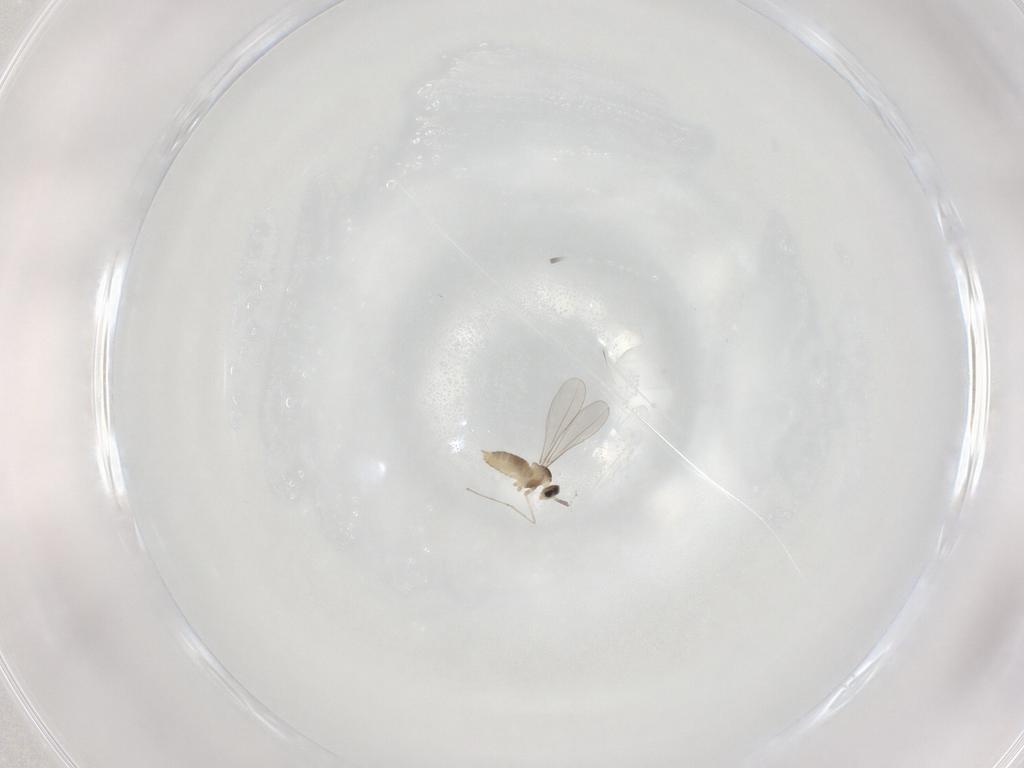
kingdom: Animalia
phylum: Arthropoda
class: Insecta
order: Diptera
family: Cecidomyiidae
